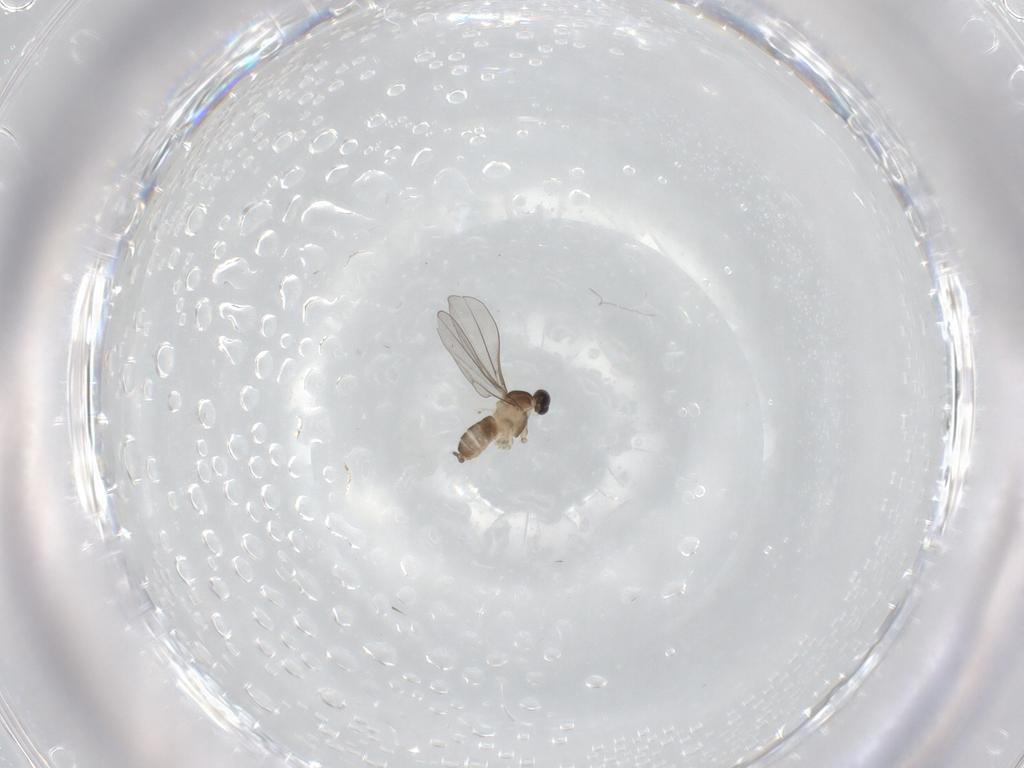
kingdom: Animalia
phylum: Arthropoda
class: Insecta
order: Diptera
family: Cecidomyiidae
